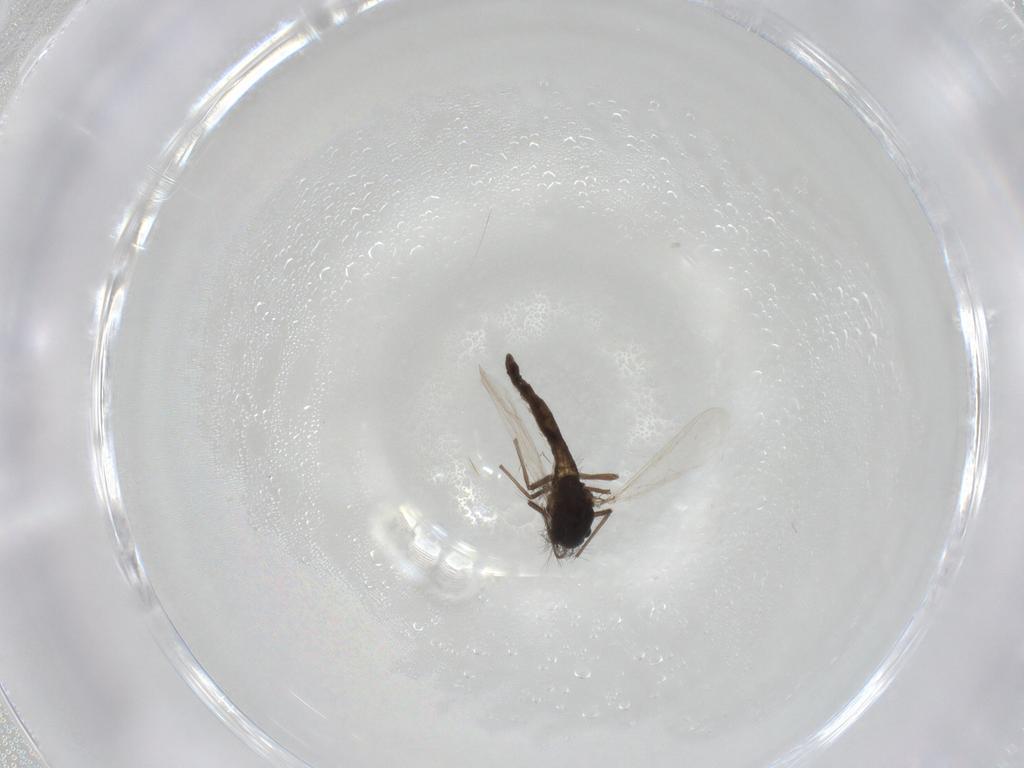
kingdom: Animalia
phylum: Arthropoda
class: Insecta
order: Diptera
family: Chironomidae
